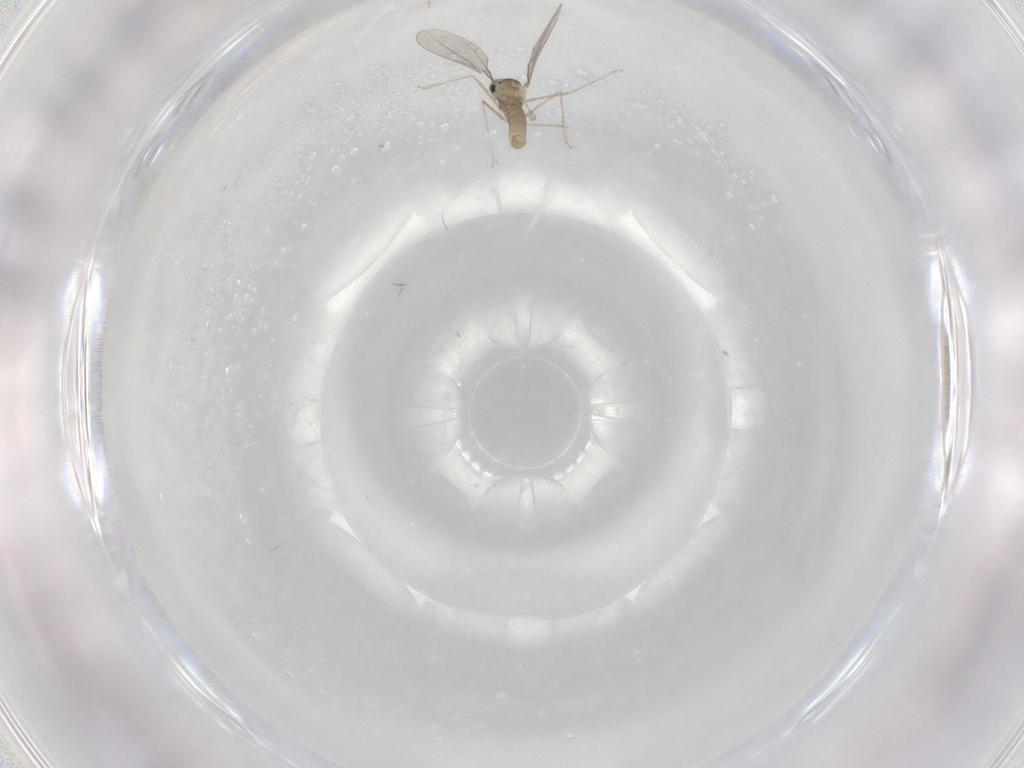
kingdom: Animalia
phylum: Arthropoda
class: Insecta
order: Diptera
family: Cecidomyiidae
